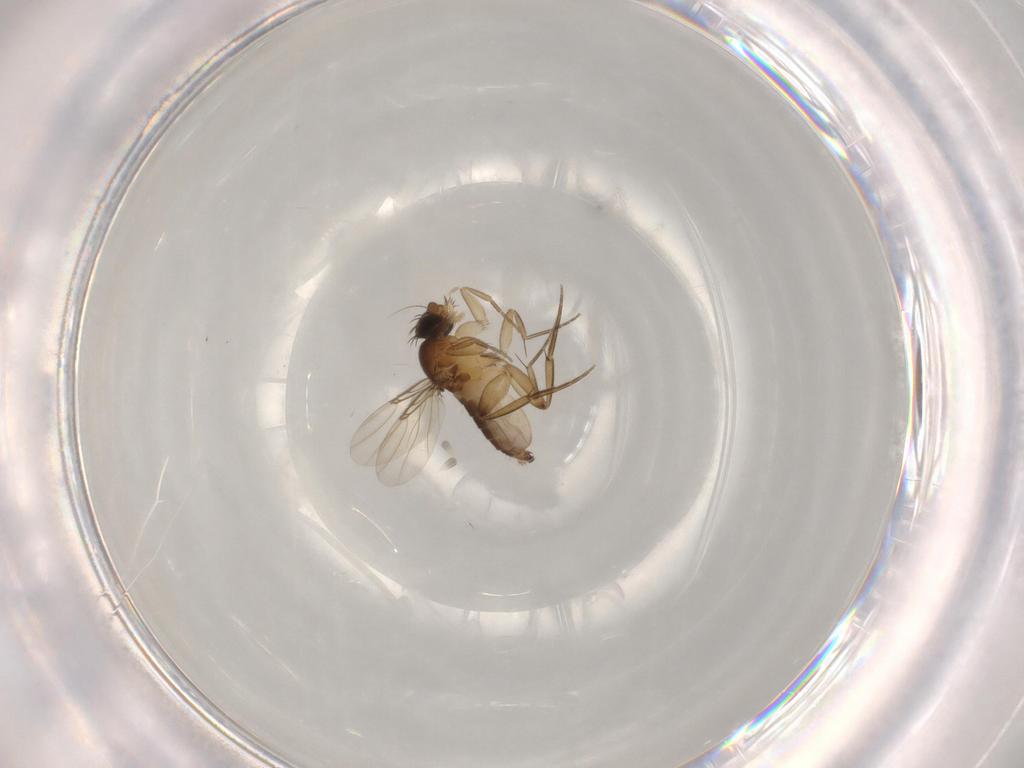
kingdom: Animalia
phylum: Arthropoda
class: Insecta
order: Diptera
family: Phoridae
